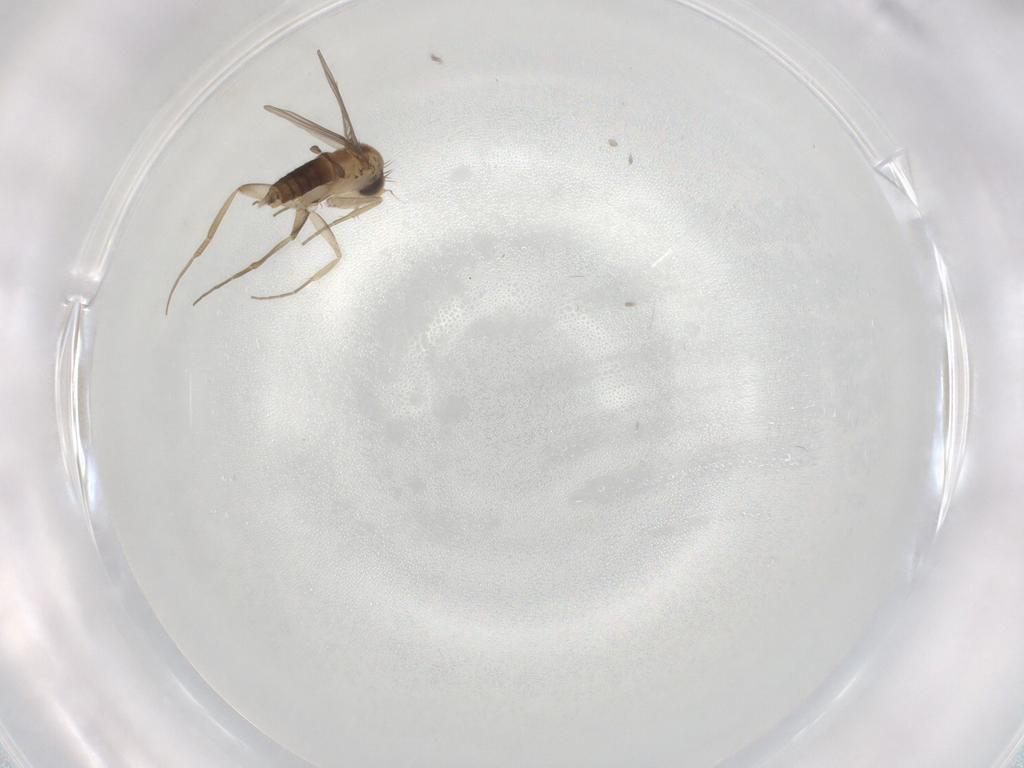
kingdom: Animalia
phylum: Arthropoda
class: Insecta
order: Diptera
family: Phoridae
